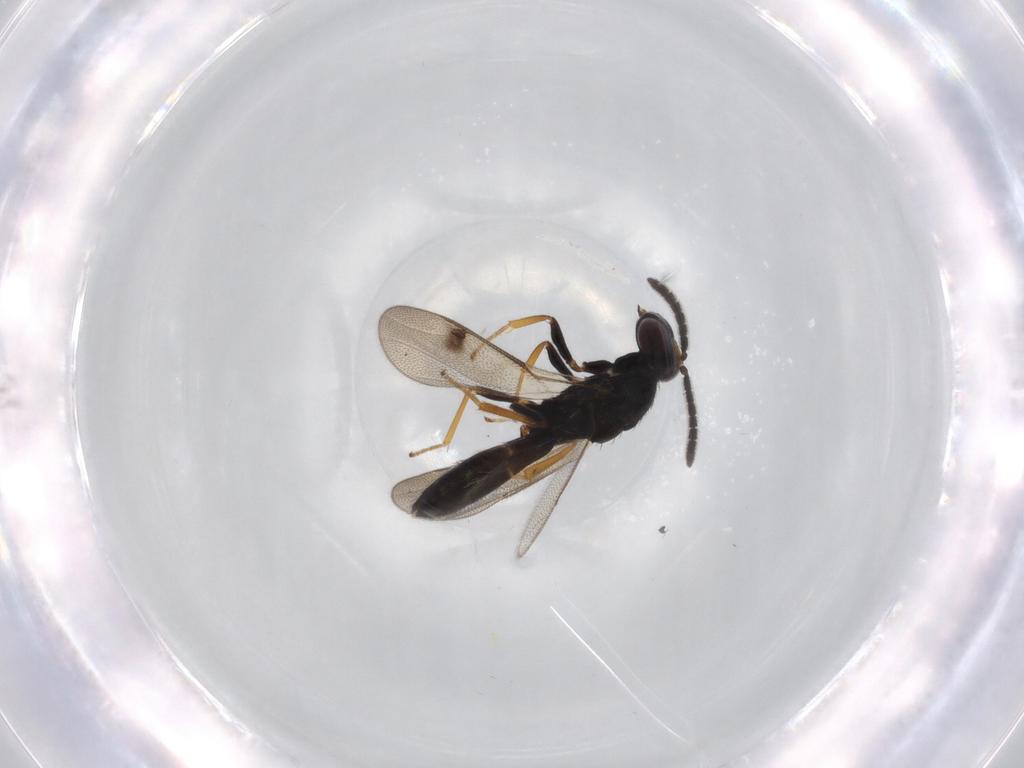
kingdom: Animalia
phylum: Arthropoda
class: Insecta
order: Hymenoptera
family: Pteromalidae
